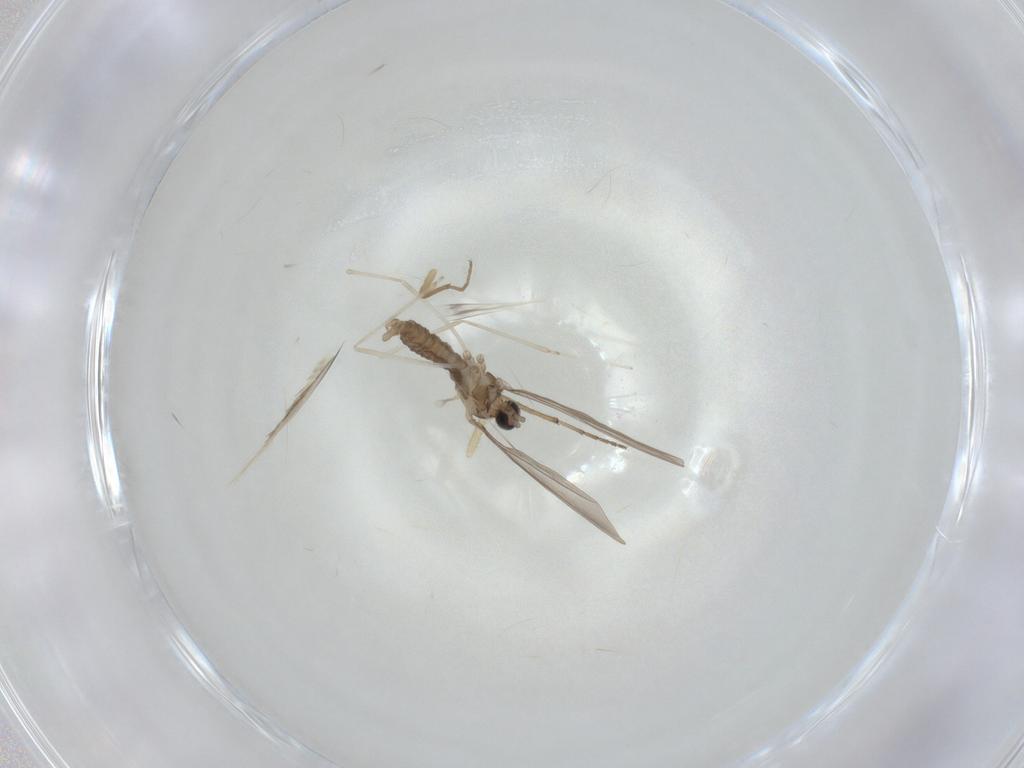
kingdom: Animalia
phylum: Arthropoda
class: Insecta
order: Diptera
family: Cecidomyiidae
